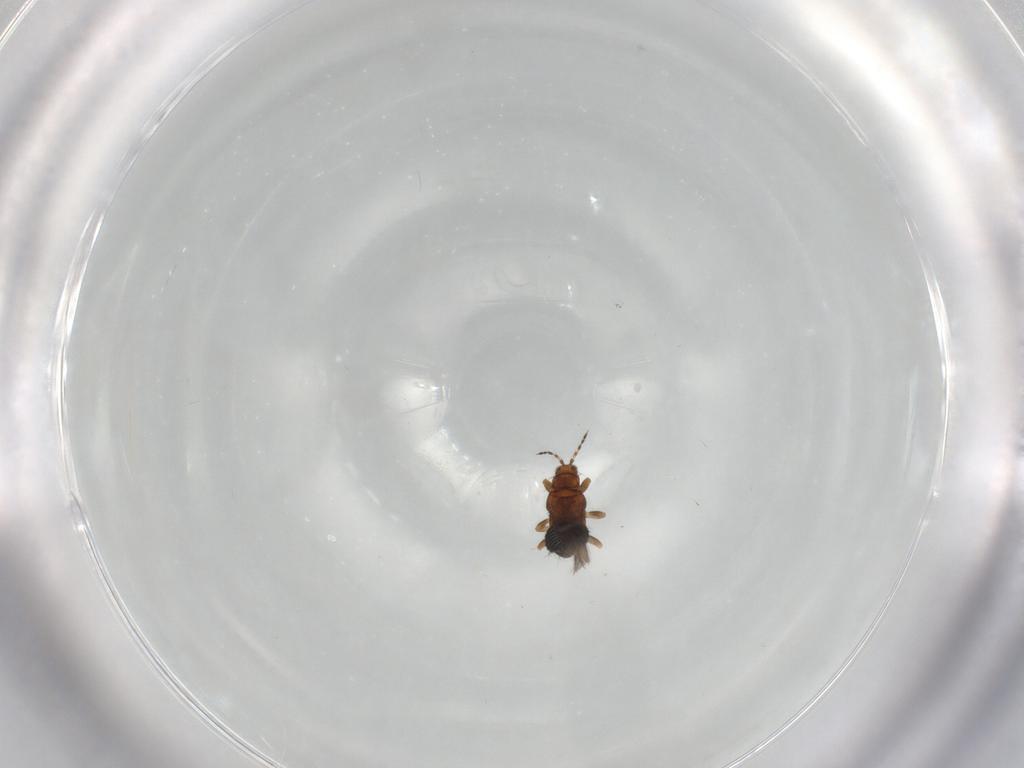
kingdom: Animalia
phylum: Arthropoda
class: Insecta
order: Thysanoptera
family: Thripidae
